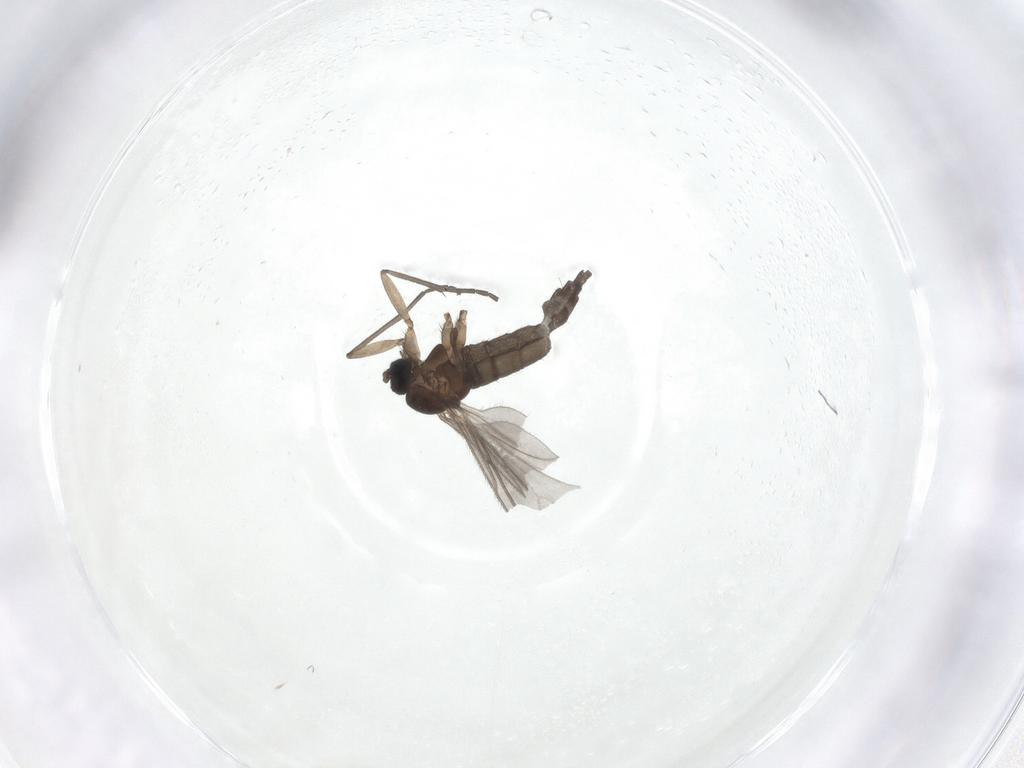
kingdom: Animalia
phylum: Arthropoda
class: Insecta
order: Diptera
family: Sciaridae
